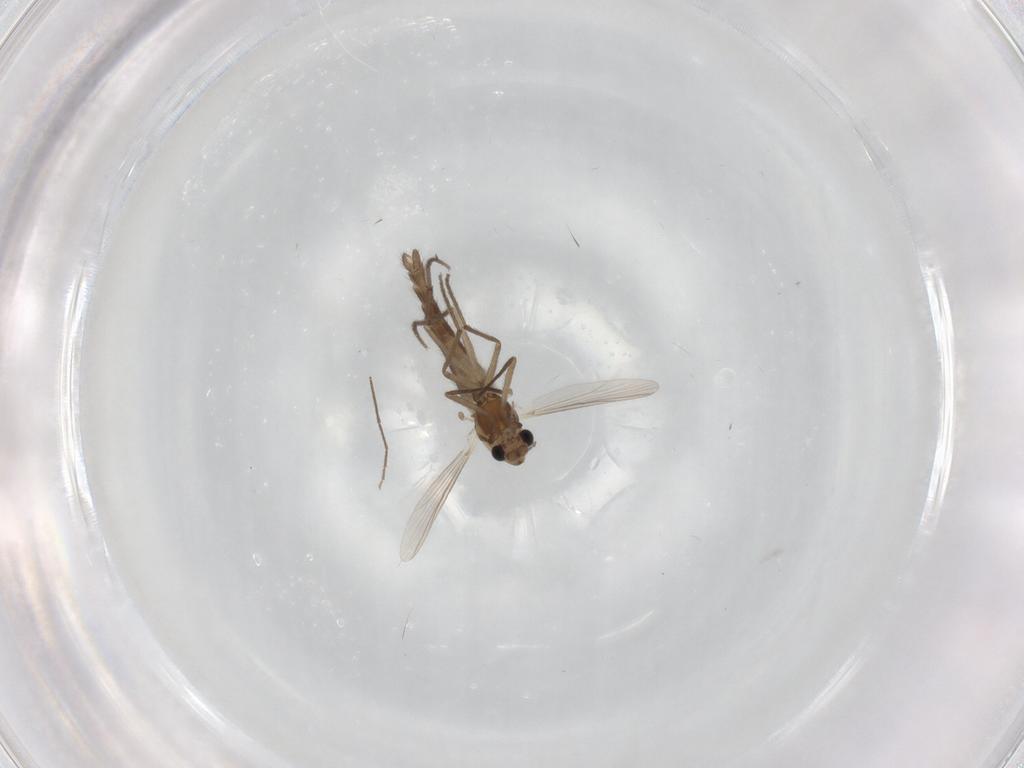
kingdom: Animalia
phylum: Arthropoda
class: Insecta
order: Diptera
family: Chironomidae
